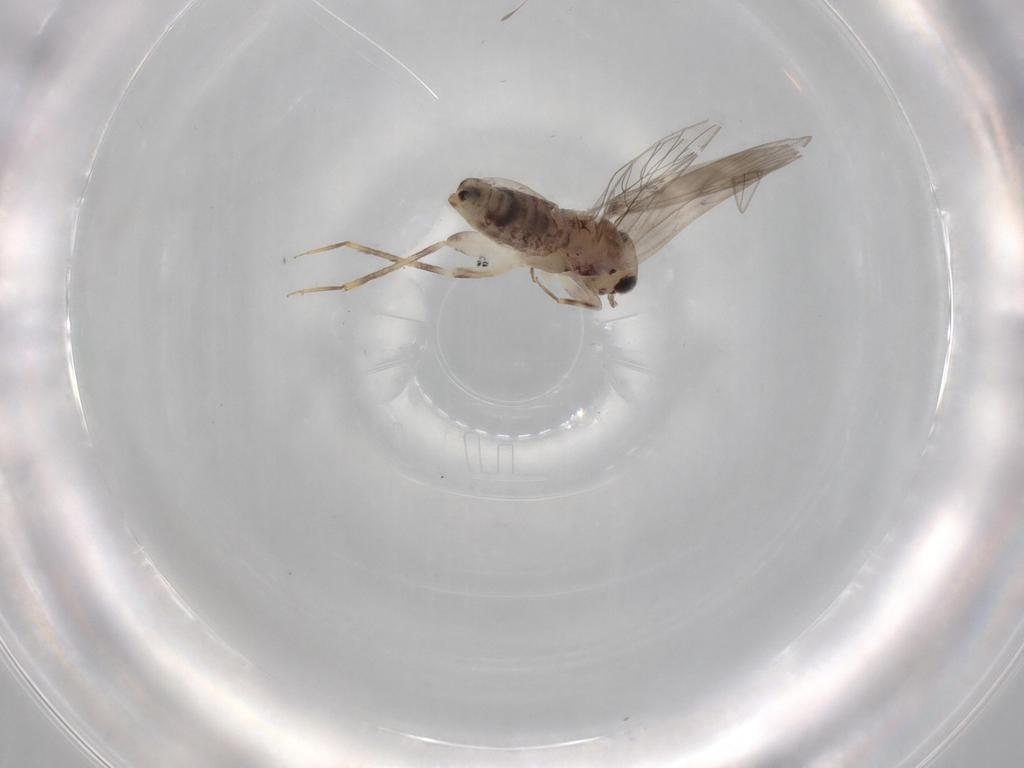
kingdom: Animalia
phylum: Arthropoda
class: Insecta
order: Psocodea
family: Lepidopsocidae
